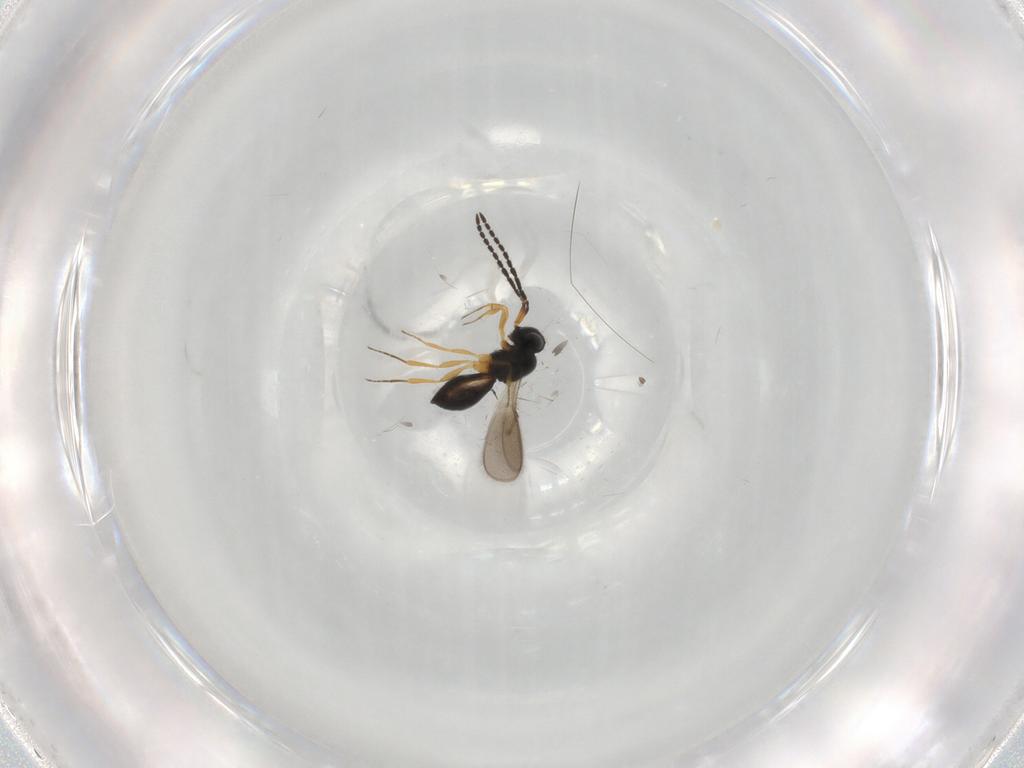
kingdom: Animalia
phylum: Arthropoda
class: Insecta
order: Hymenoptera
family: Scelionidae
